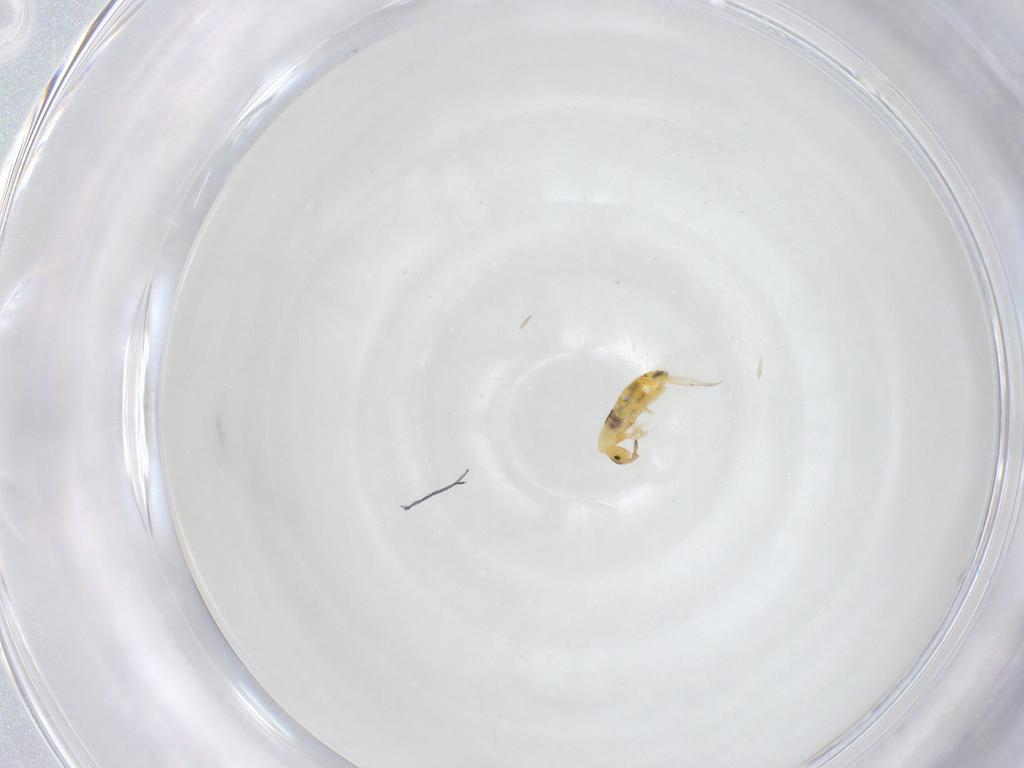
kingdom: Animalia
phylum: Arthropoda
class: Collembola
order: Entomobryomorpha
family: Entomobryidae
